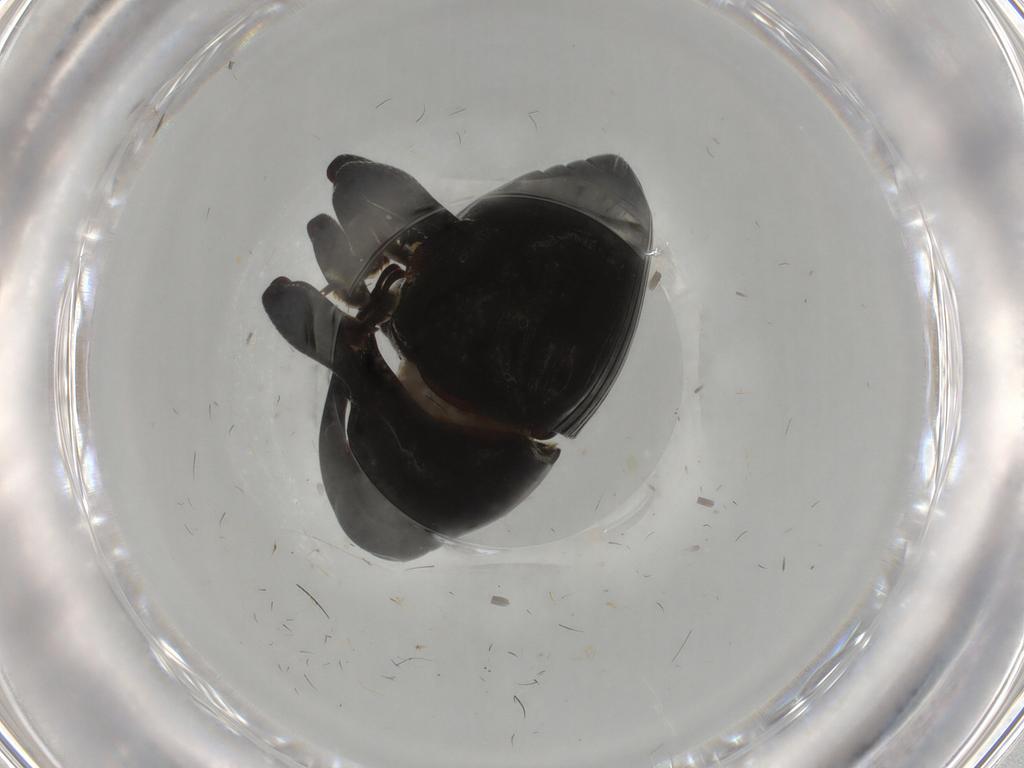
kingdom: Animalia
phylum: Arthropoda
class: Insecta
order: Coleoptera
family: Curculionidae
